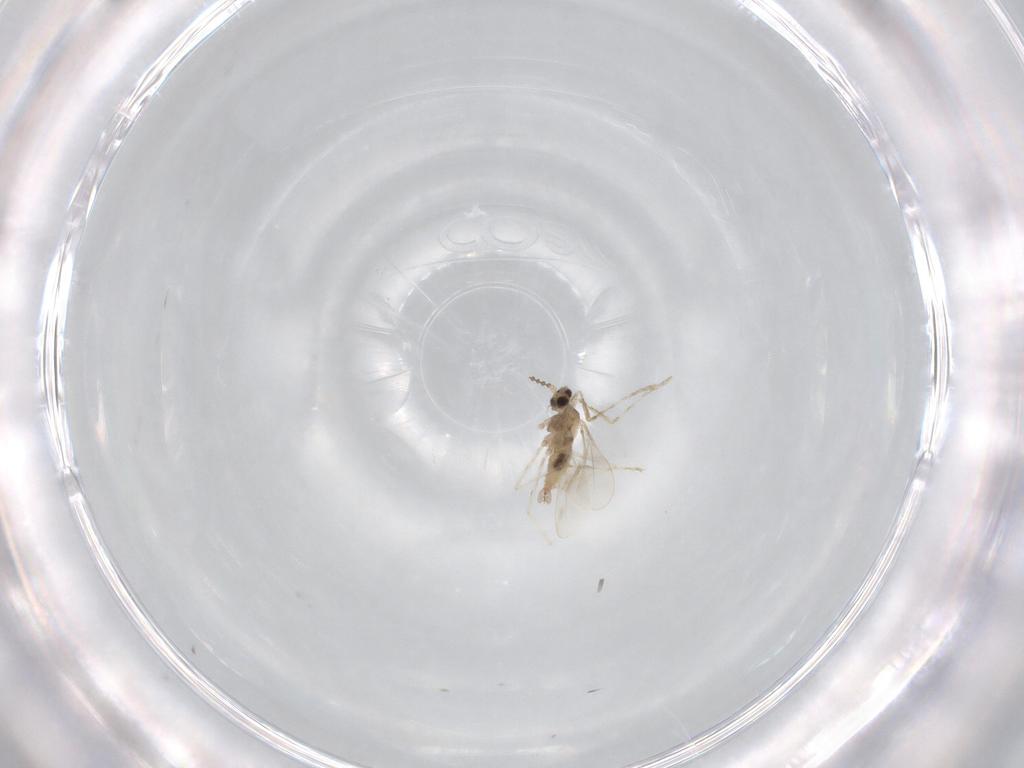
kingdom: Animalia
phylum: Arthropoda
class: Insecta
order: Diptera
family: Cecidomyiidae
